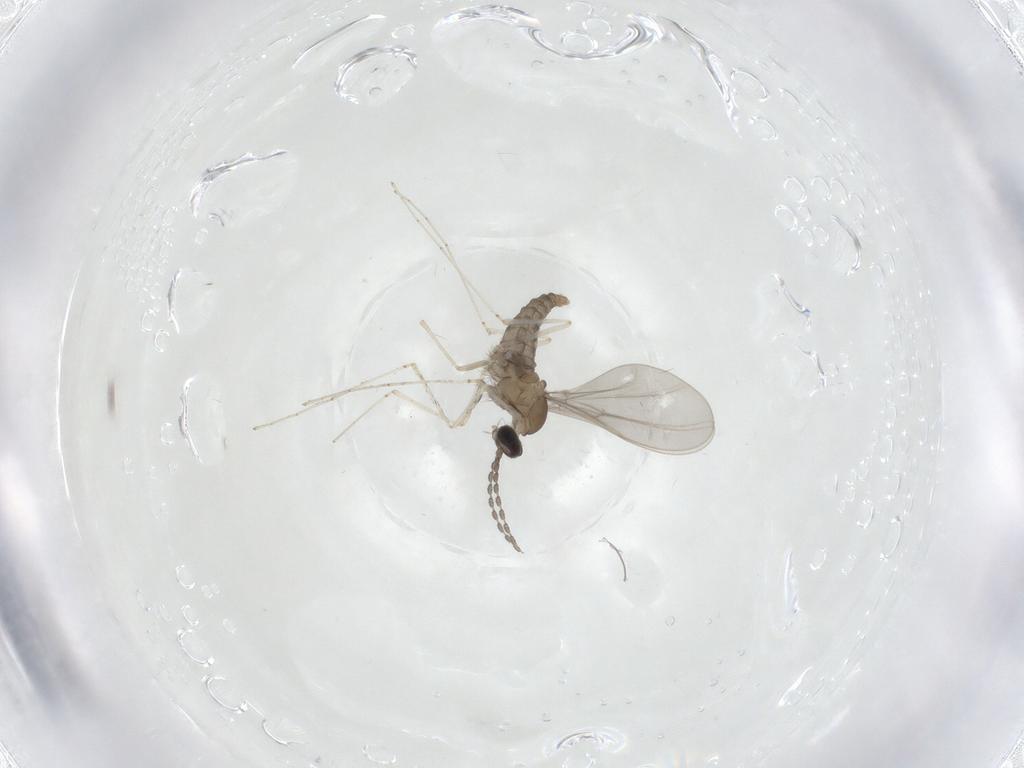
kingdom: Animalia
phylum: Arthropoda
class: Insecta
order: Diptera
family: Cecidomyiidae
